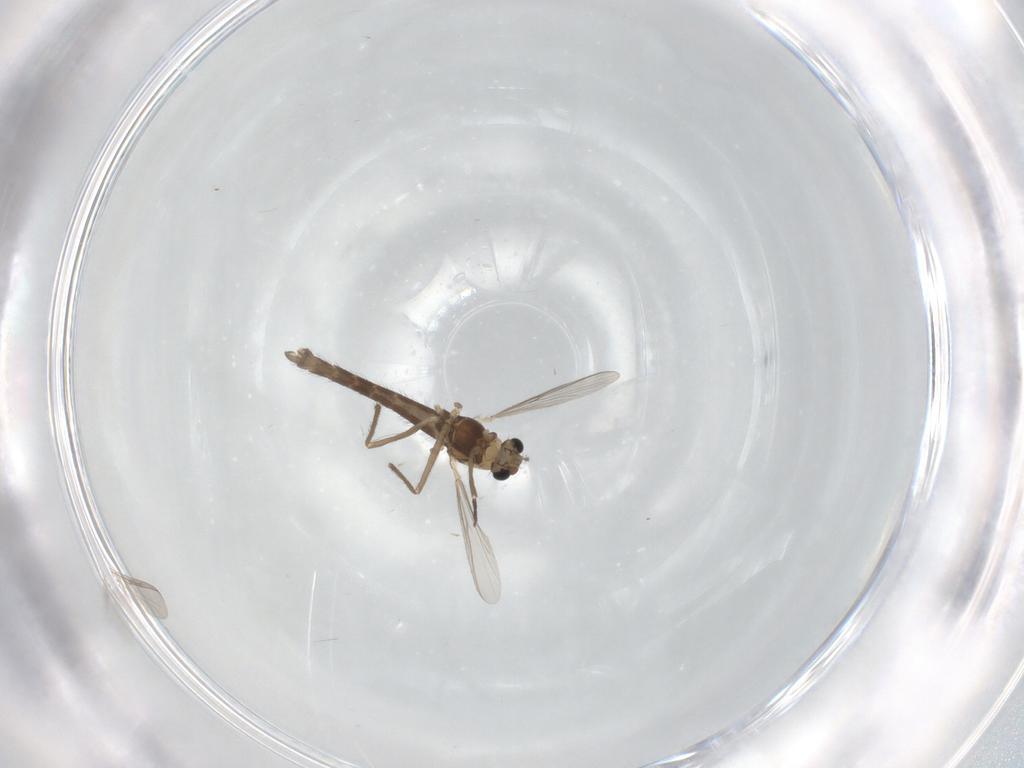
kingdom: Animalia
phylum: Arthropoda
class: Insecta
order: Diptera
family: Chironomidae
